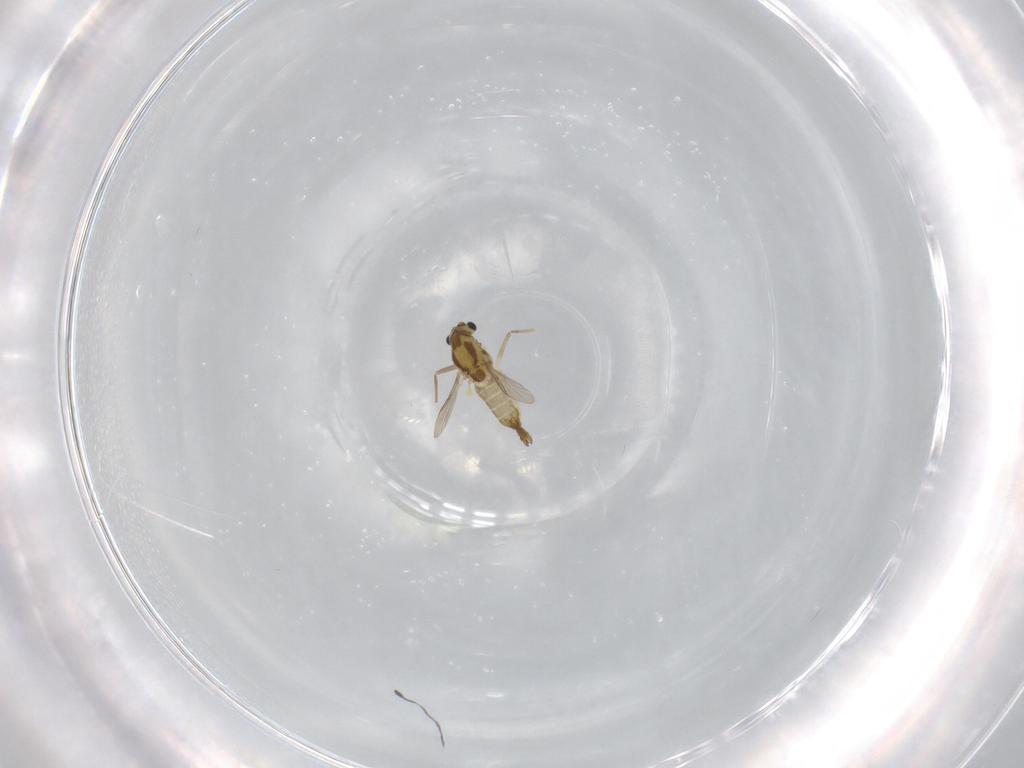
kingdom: Animalia
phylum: Arthropoda
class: Insecta
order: Diptera
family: Chironomidae
